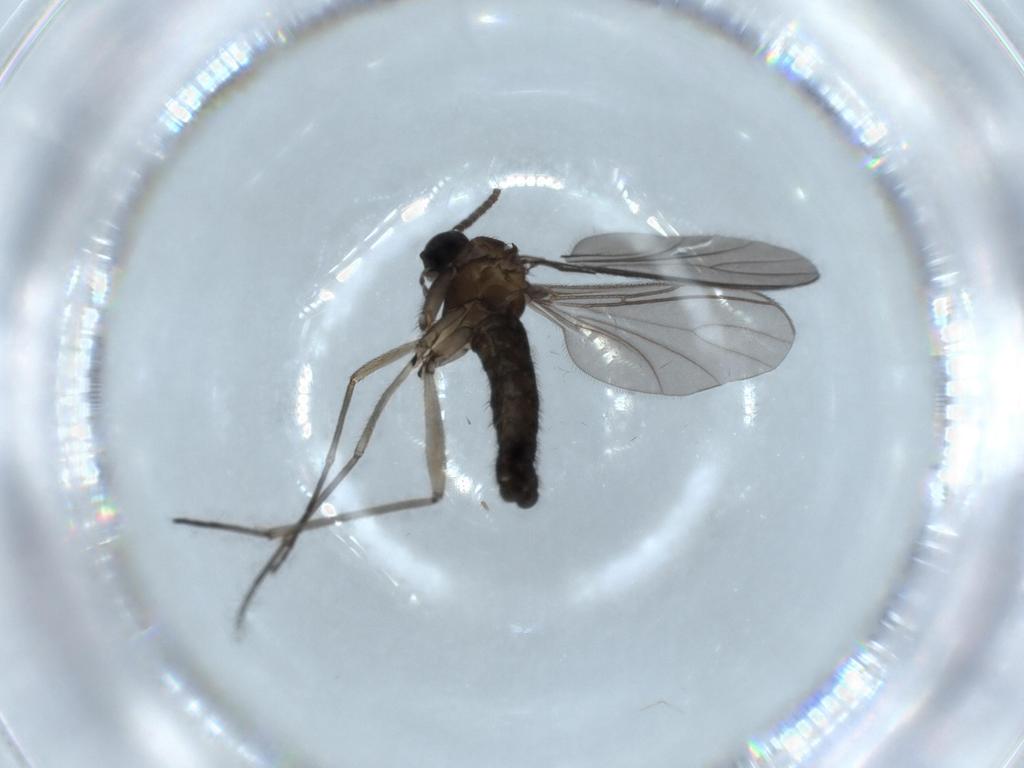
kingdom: Animalia
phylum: Arthropoda
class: Insecta
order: Diptera
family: Sciaridae
